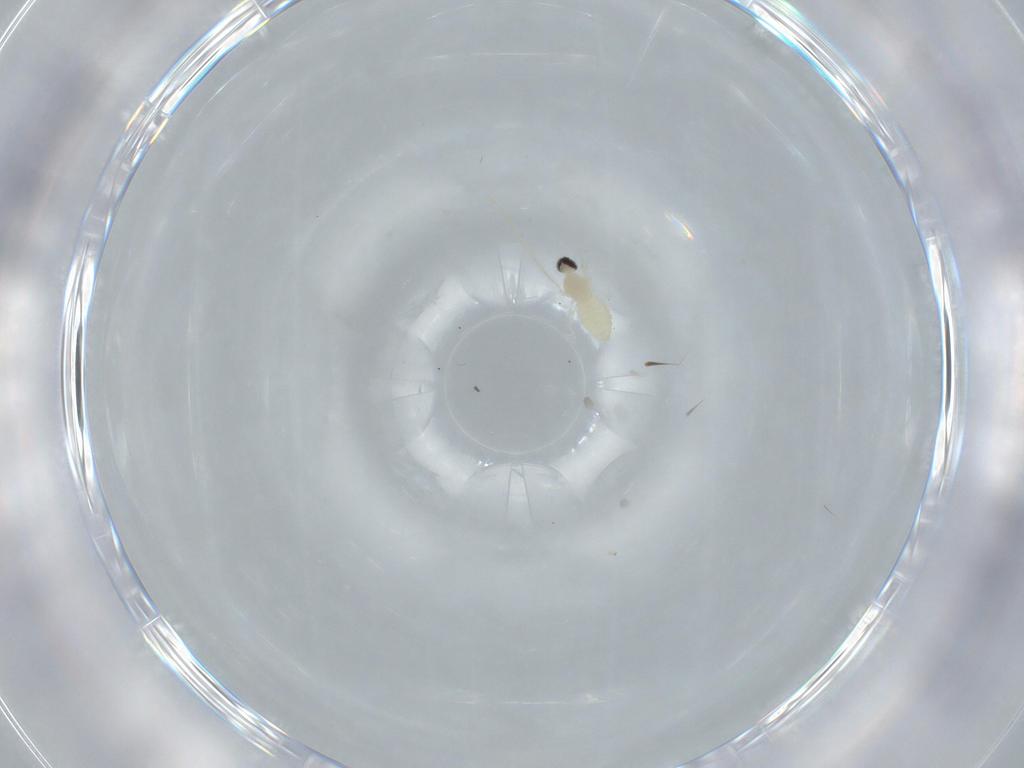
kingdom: Animalia
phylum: Arthropoda
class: Insecta
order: Diptera
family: Cecidomyiidae
